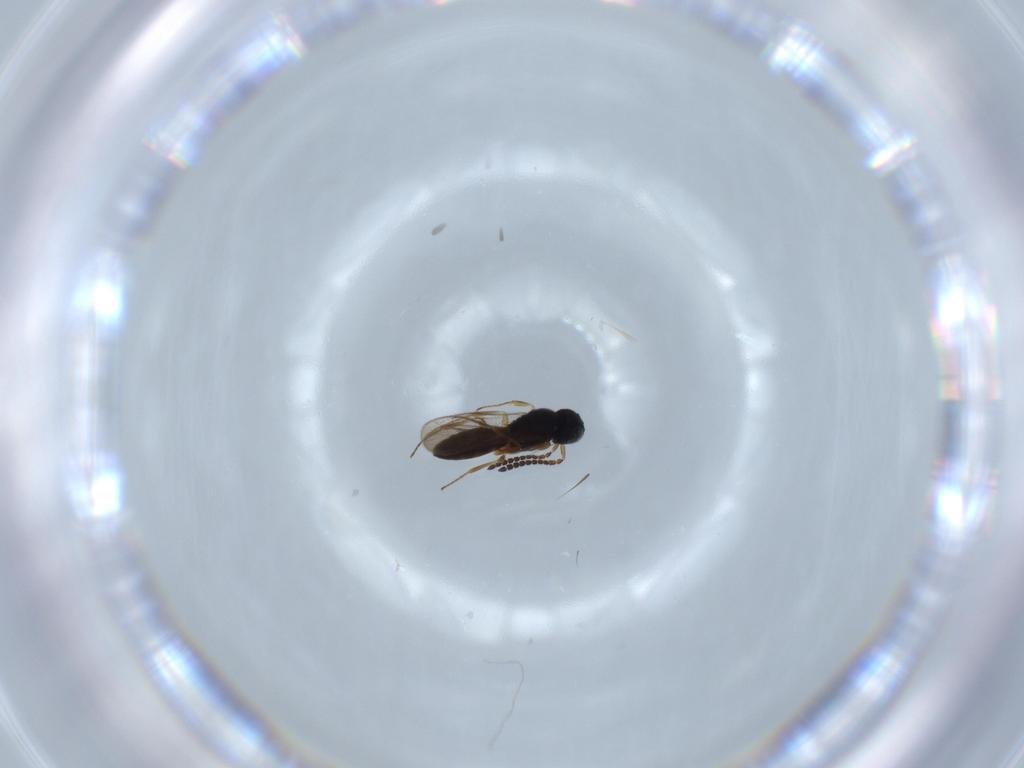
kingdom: Animalia
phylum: Arthropoda
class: Insecta
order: Hymenoptera
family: Scelionidae
